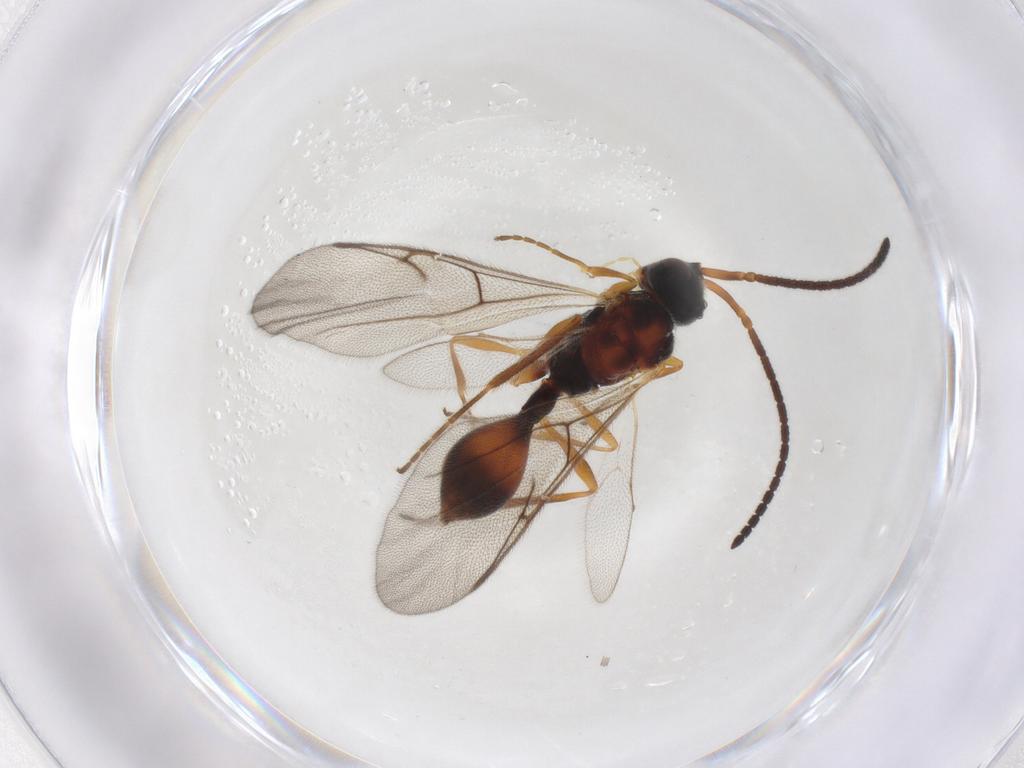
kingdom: Animalia
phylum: Arthropoda
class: Insecta
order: Hymenoptera
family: Diapriidae
